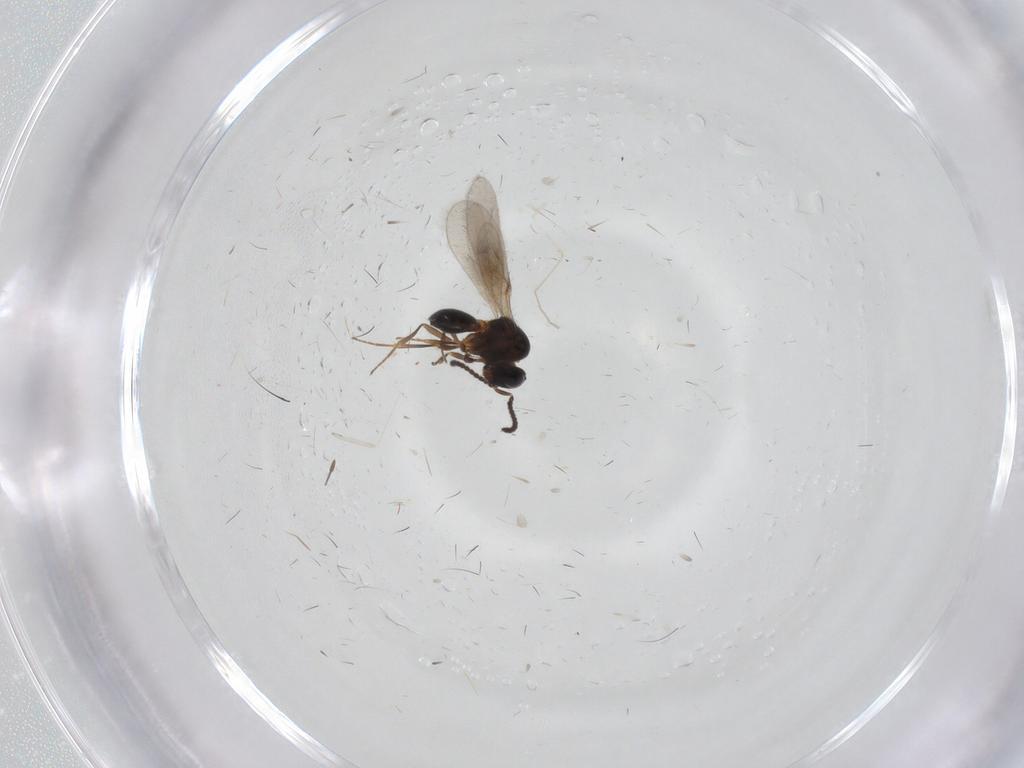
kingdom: Animalia
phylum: Arthropoda
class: Insecta
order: Hymenoptera
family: Scelionidae
